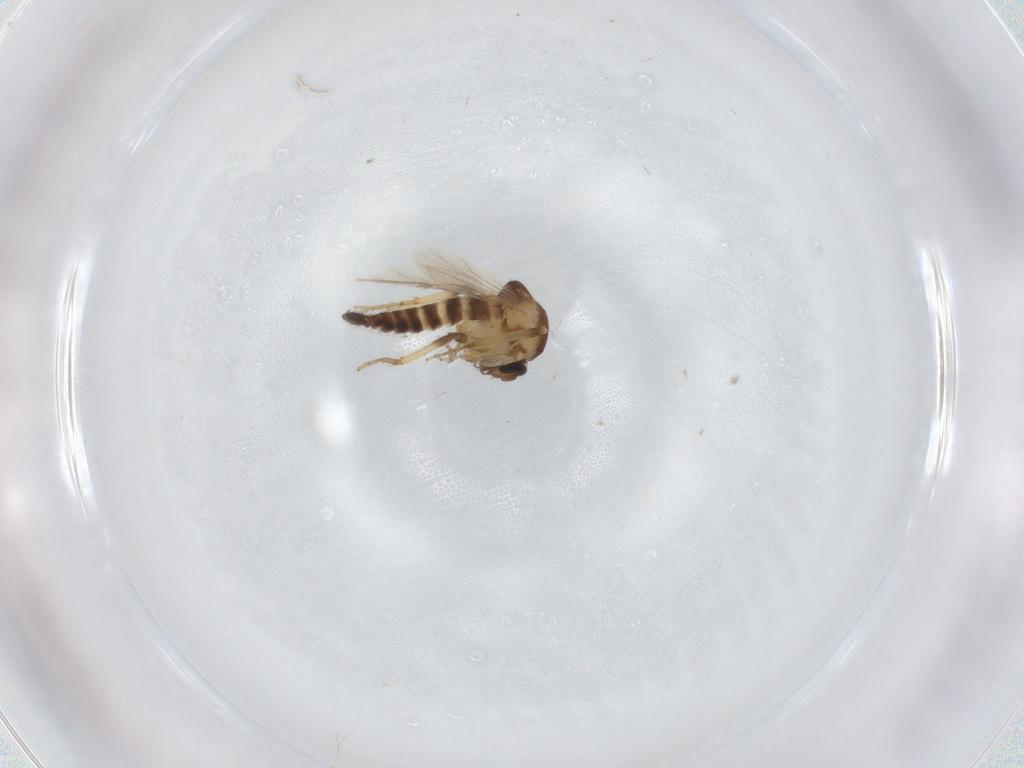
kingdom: Animalia
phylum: Arthropoda
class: Insecta
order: Diptera
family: Ceratopogonidae
